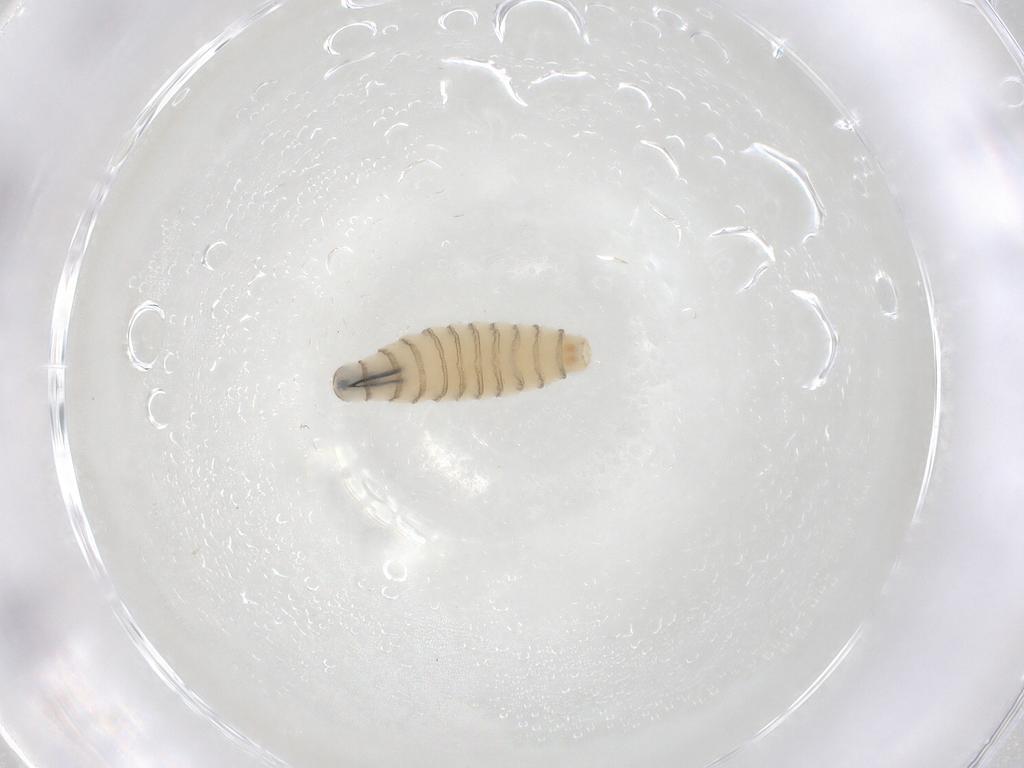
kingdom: Animalia
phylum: Arthropoda
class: Insecta
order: Diptera
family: Sarcophagidae
